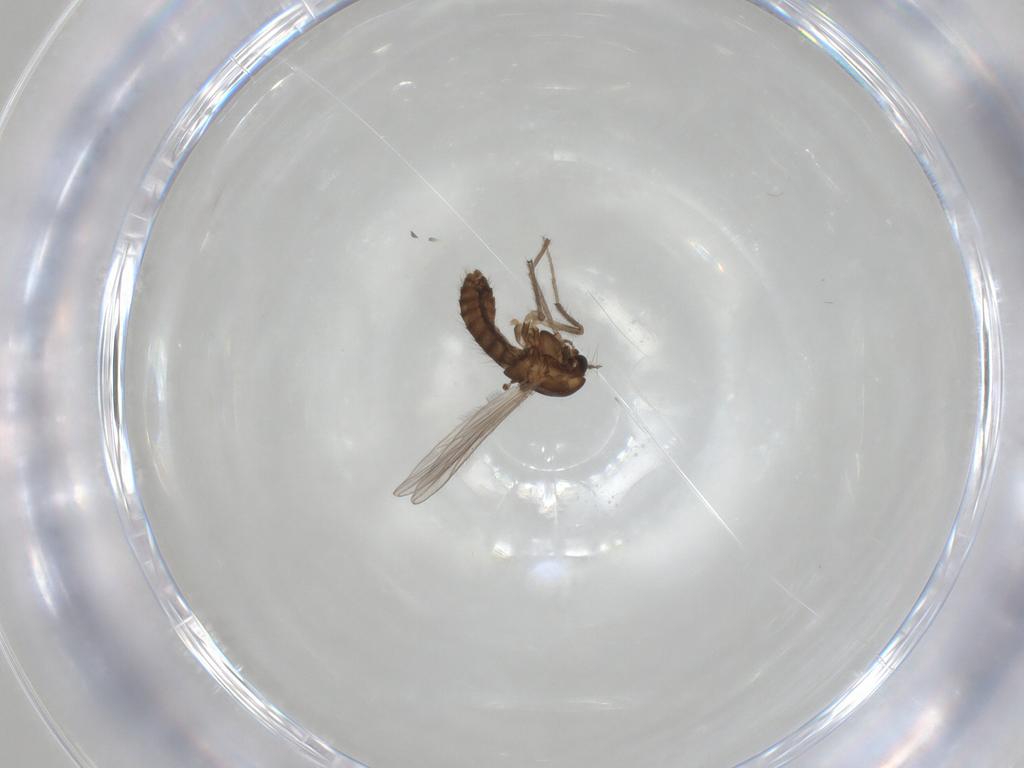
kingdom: Animalia
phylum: Arthropoda
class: Insecta
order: Diptera
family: Chironomidae
